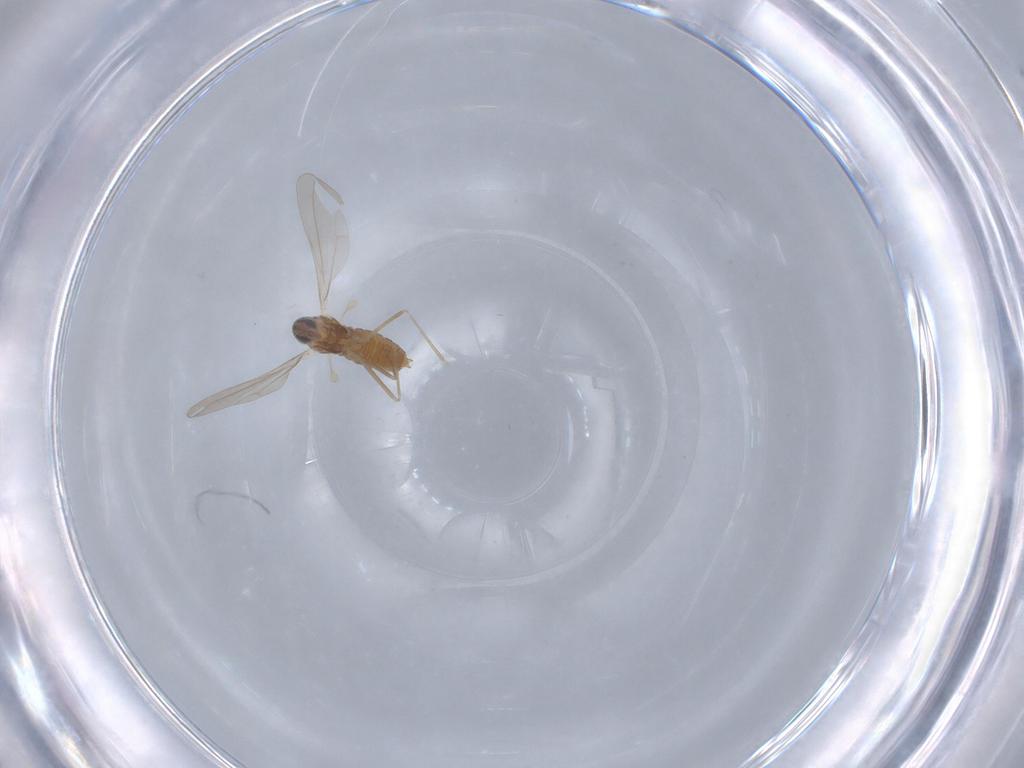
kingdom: Animalia
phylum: Arthropoda
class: Insecta
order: Diptera
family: Cecidomyiidae
